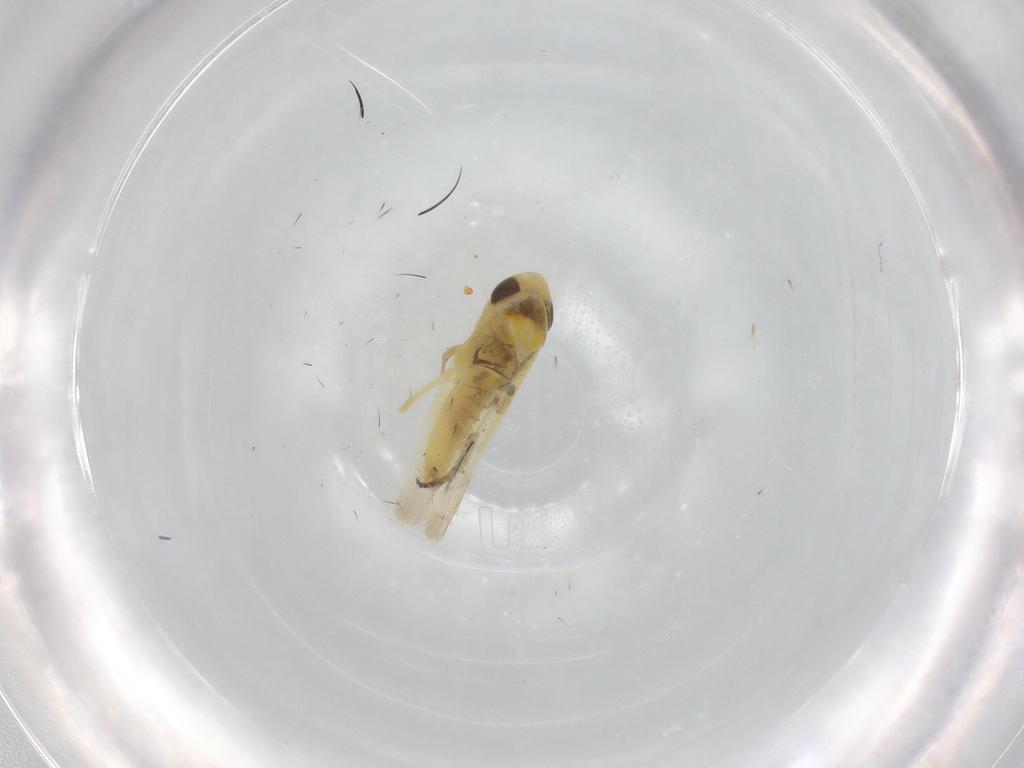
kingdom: Animalia
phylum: Arthropoda
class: Insecta
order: Hemiptera
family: Cicadellidae
